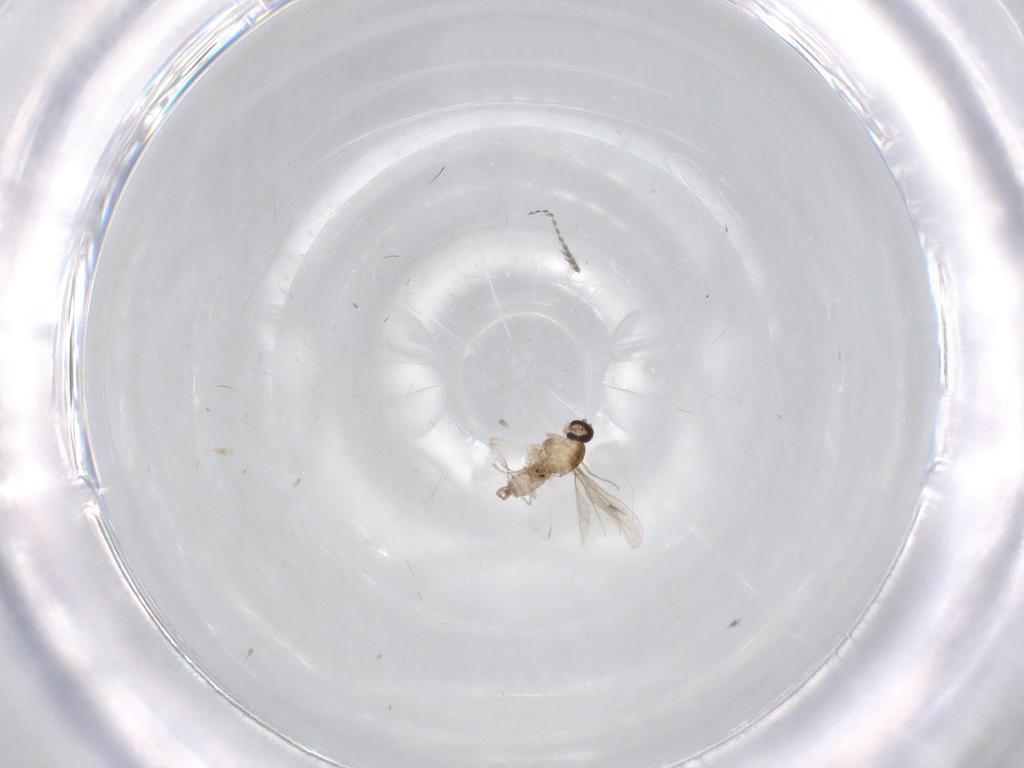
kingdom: Animalia
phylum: Arthropoda
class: Insecta
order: Diptera
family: Cecidomyiidae
